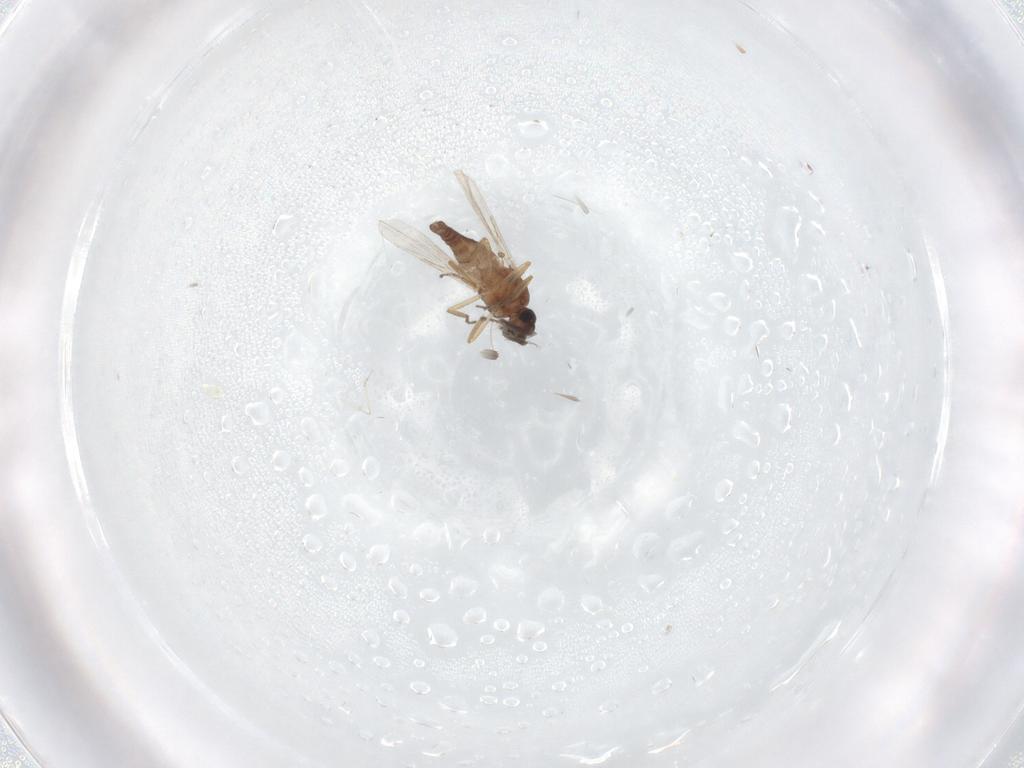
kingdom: Animalia
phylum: Arthropoda
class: Insecta
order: Diptera
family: Ceratopogonidae
